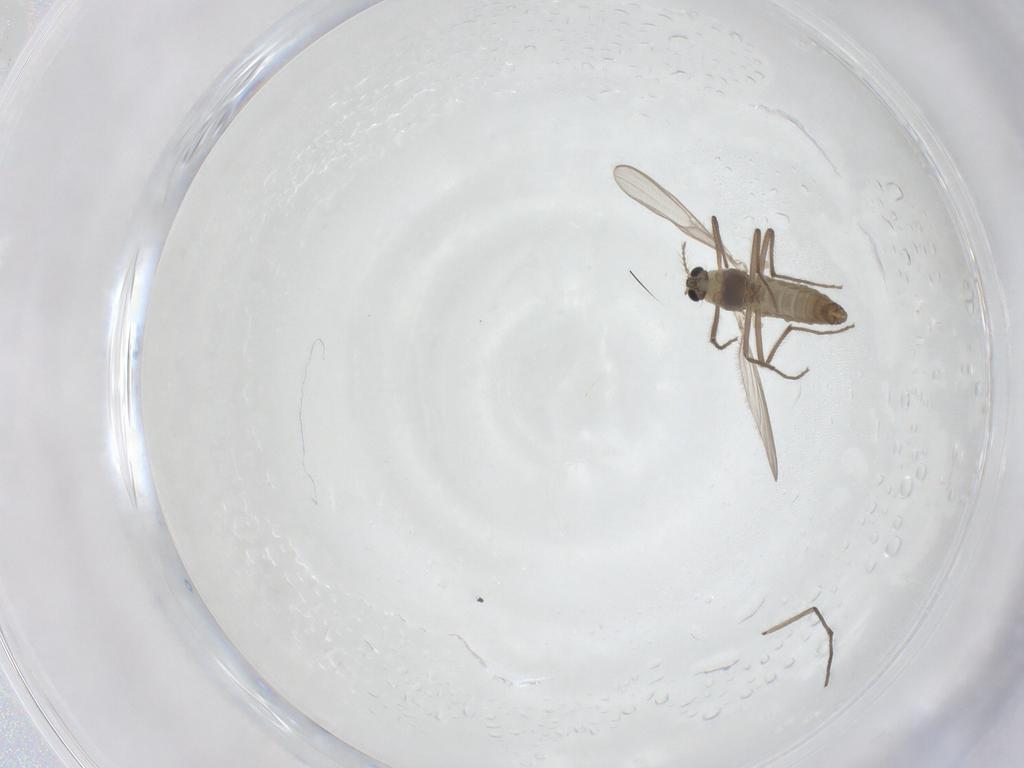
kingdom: Animalia
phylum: Arthropoda
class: Insecta
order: Diptera
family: Chironomidae
